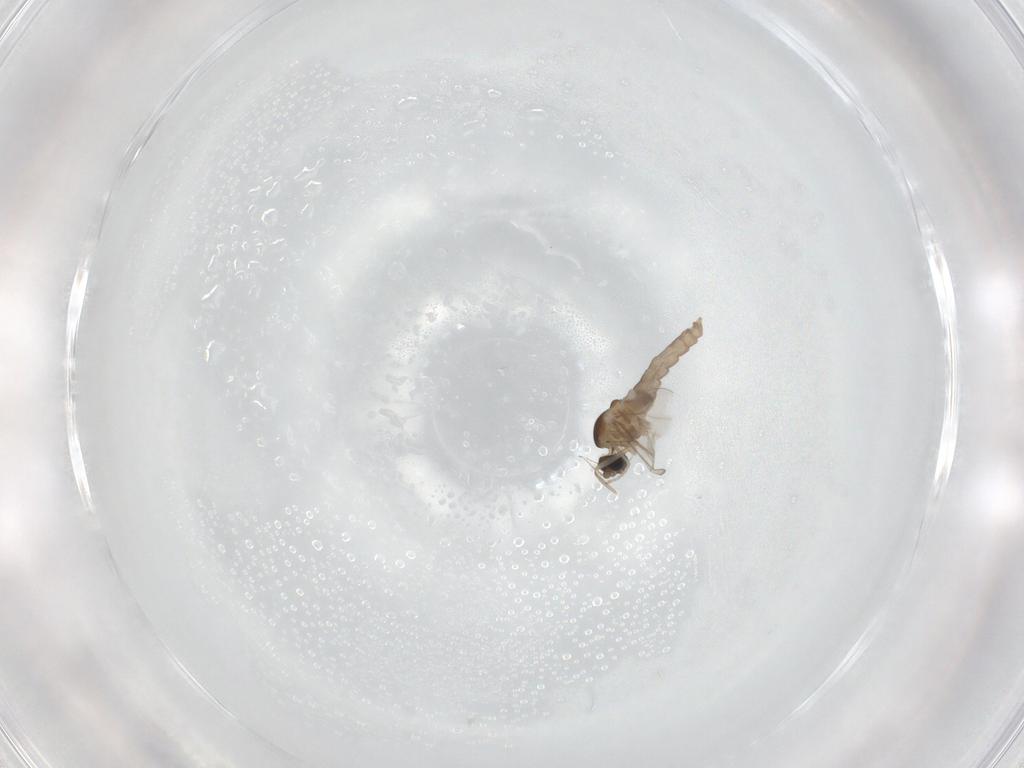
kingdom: Animalia
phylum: Arthropoda
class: Insecta
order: Diptera
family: Cecidomyiidae
